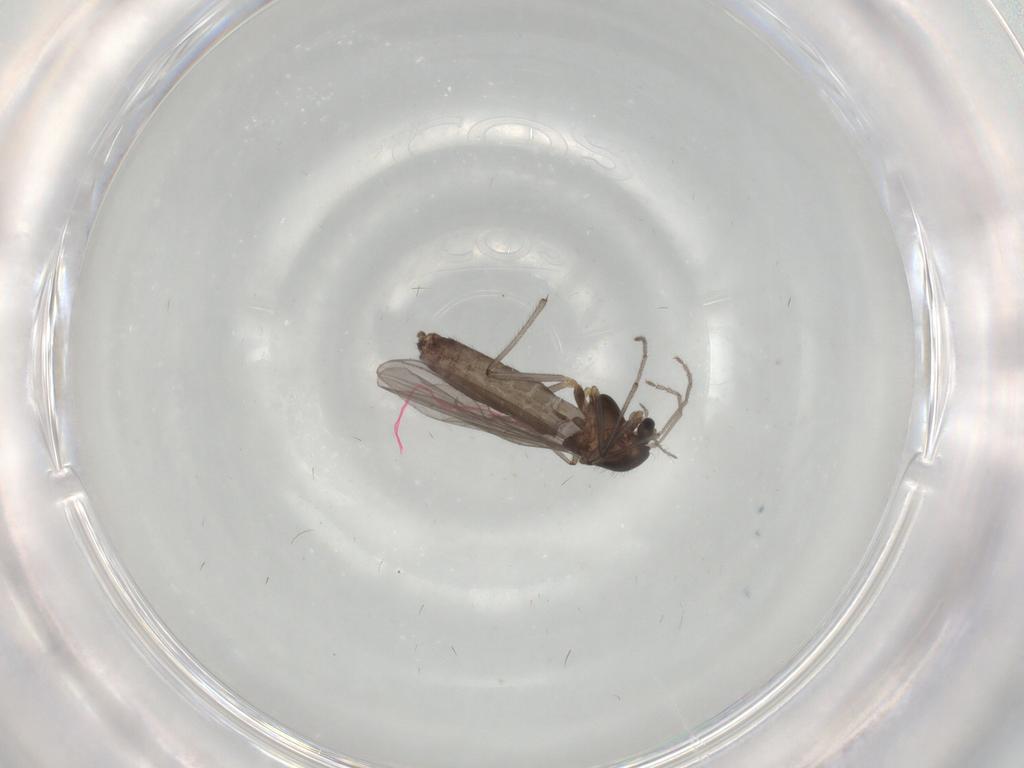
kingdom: Animalia
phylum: Arthropoda
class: Insecta
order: Diptera
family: Chironomidae
